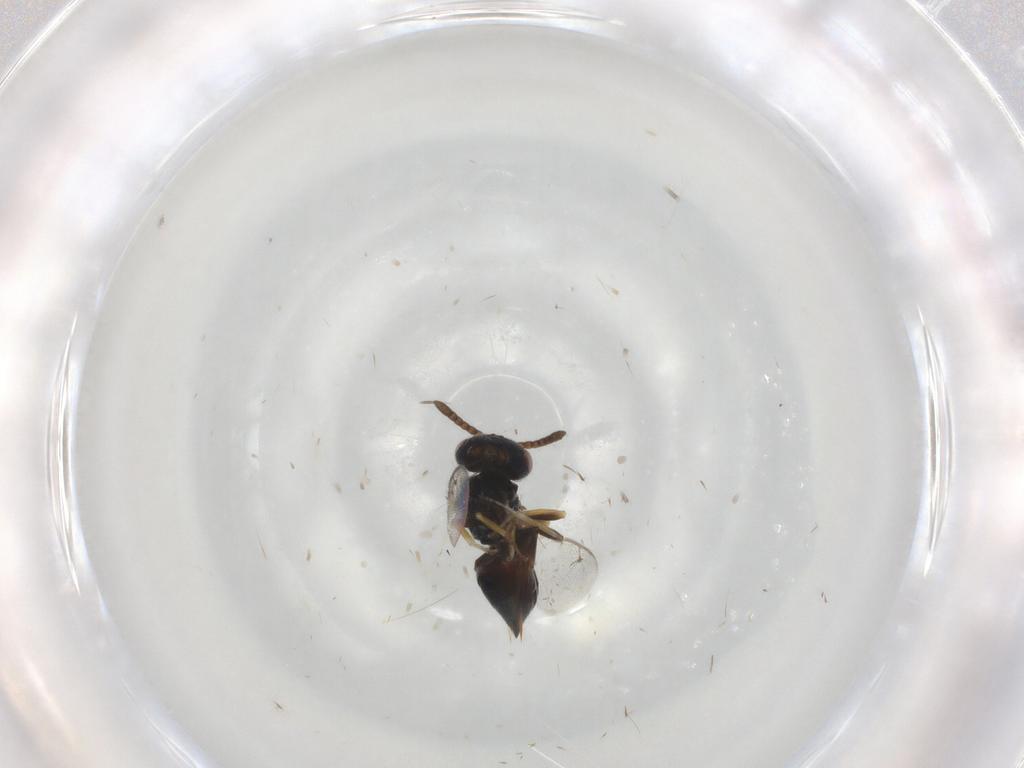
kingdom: Animalia
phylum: Arthropoda
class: Insecta
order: Hymenoptera
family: Pteromalidae
